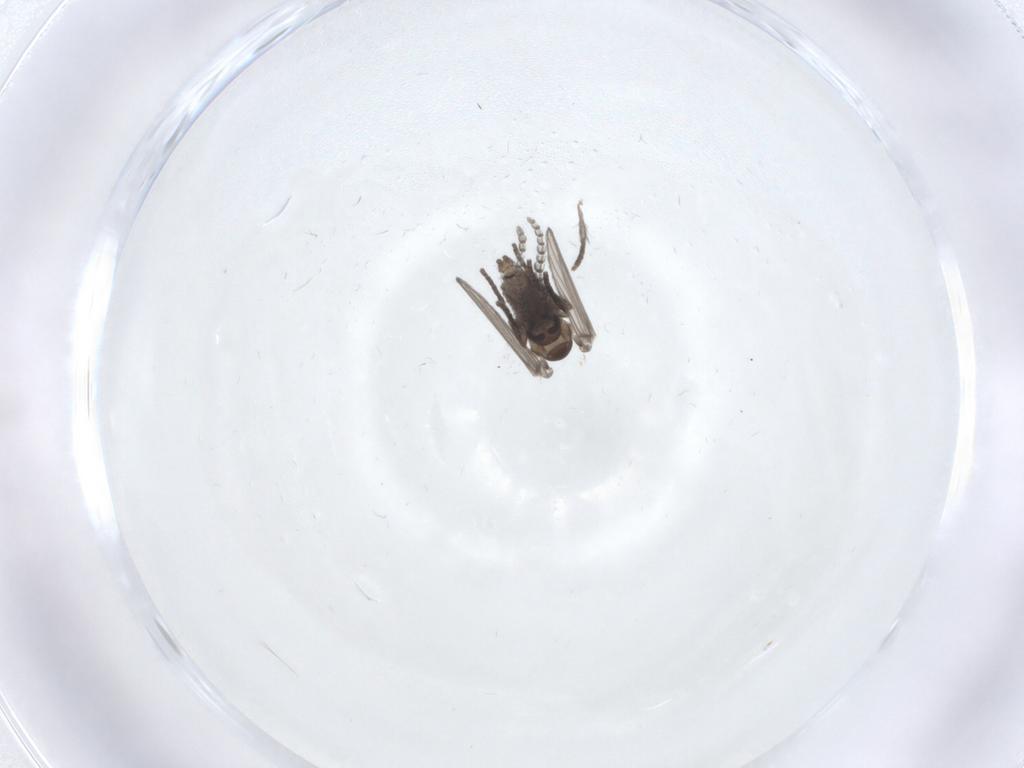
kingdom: Animalia
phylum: Arthropoda
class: Insecta
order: Diptera
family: Psychodidae
